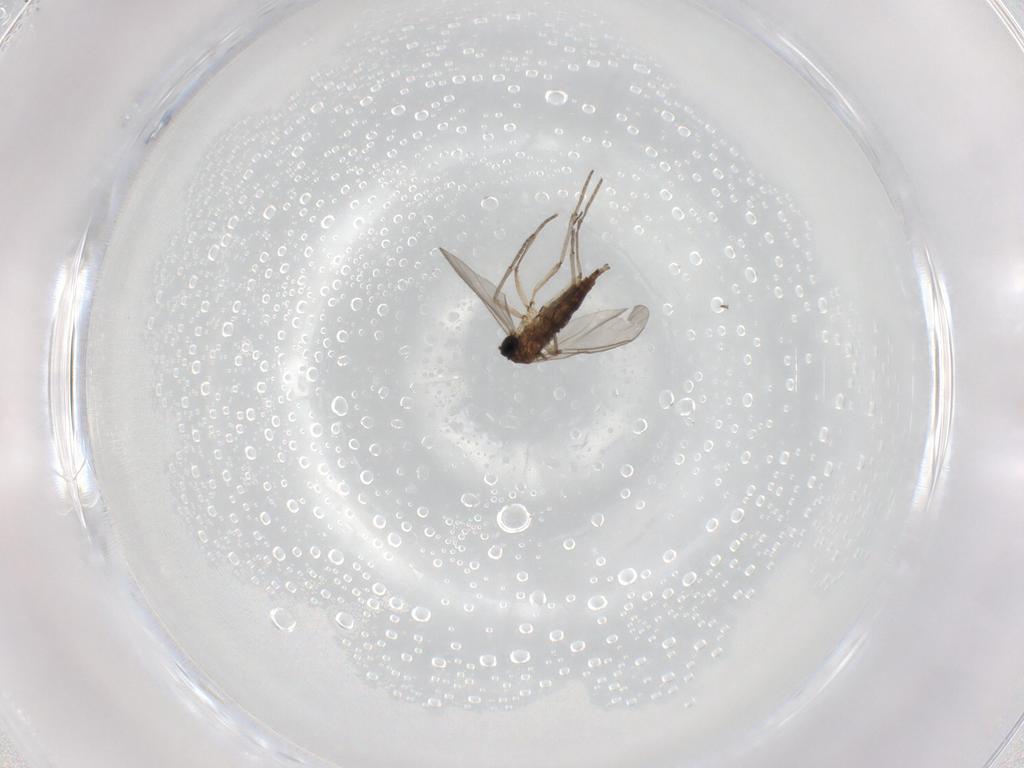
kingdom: Animalia
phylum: Arthropoda
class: Insecta
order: Diptera
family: Sciaridae
